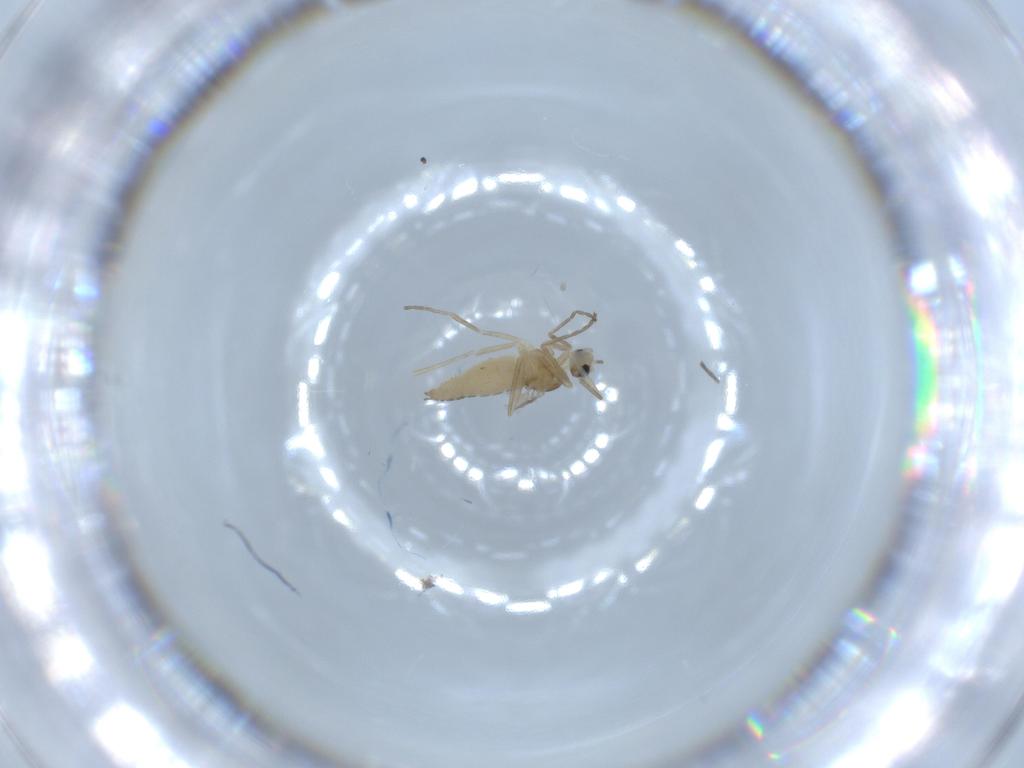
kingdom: Animalia
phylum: Arthropoda
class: Insecta
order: Diptera
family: Cecidomyiidae
